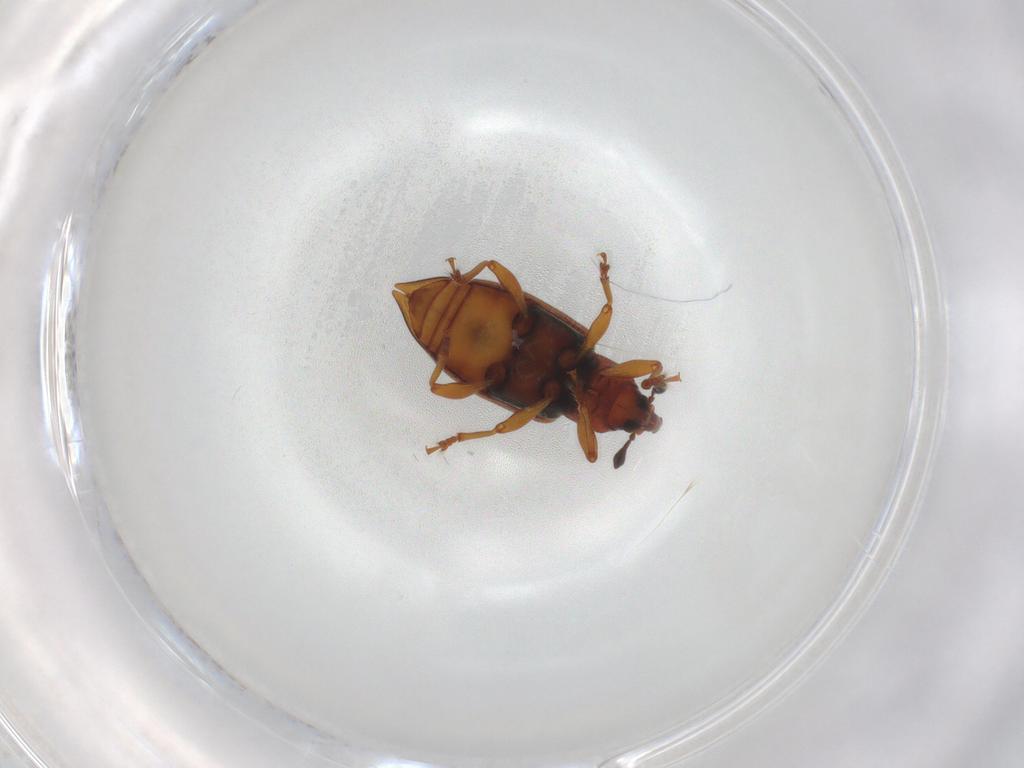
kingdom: Animalia
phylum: Arthropoda
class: Insecta
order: Coleoptera
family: Curculionidae
